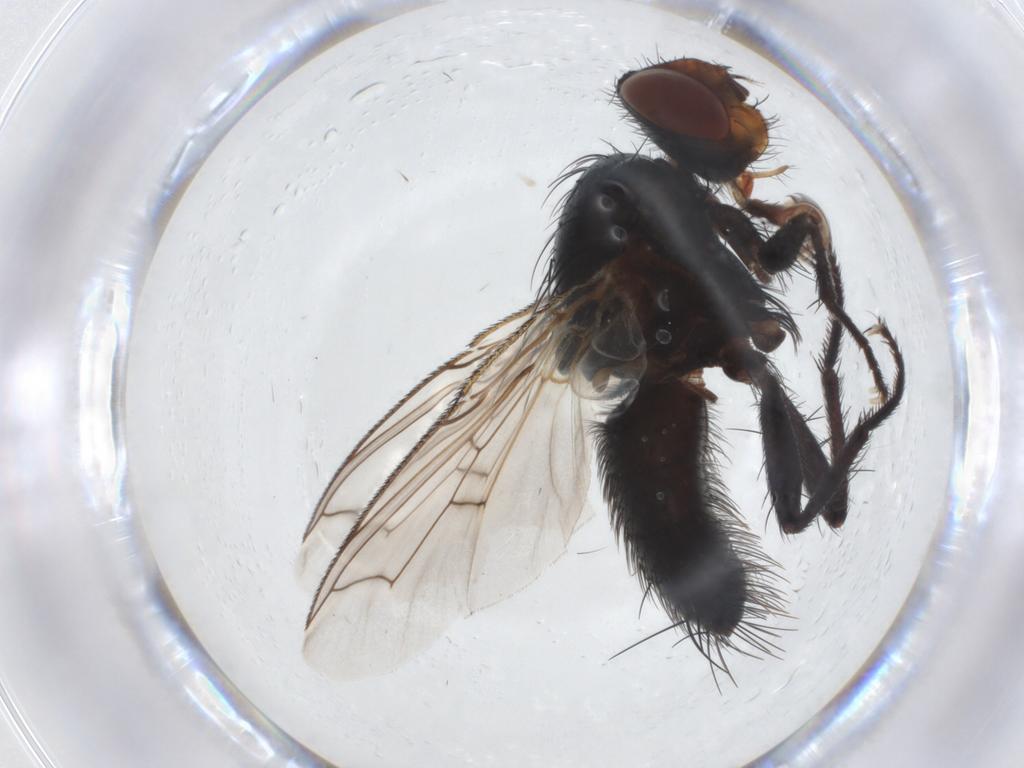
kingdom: Animalia
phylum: Arthropoda
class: Insecta
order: Diptera
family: Tachinidae
